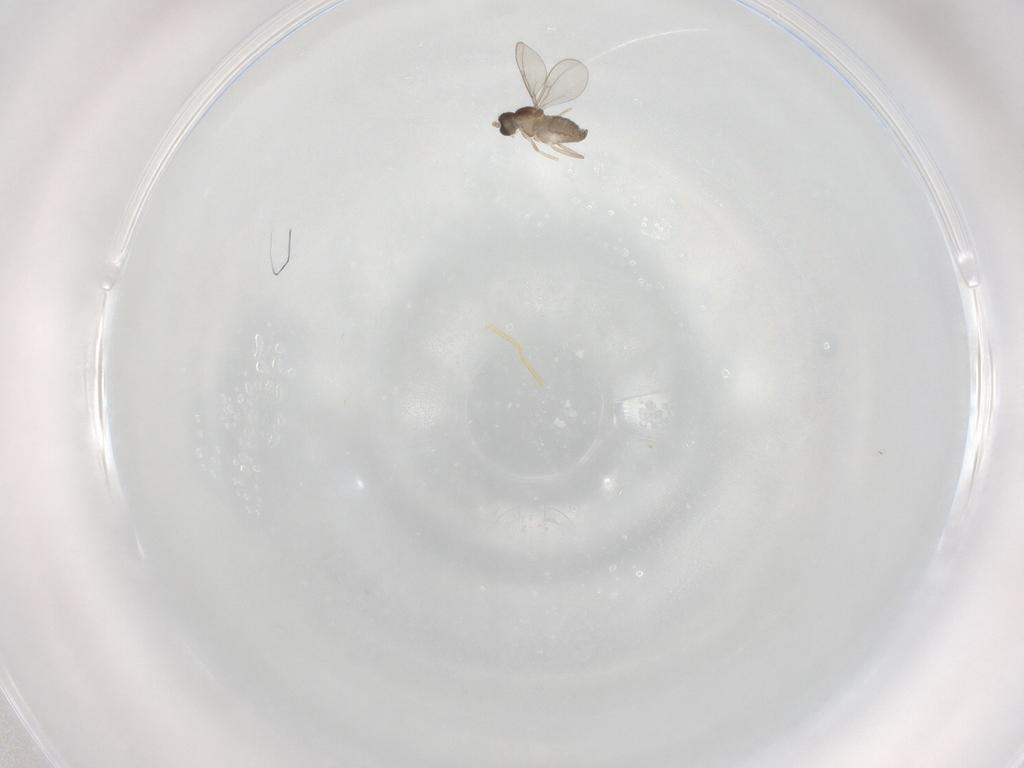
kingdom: Animalia
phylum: Arthropoda
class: Insecta
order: Diptera
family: Cecidomyiidae
